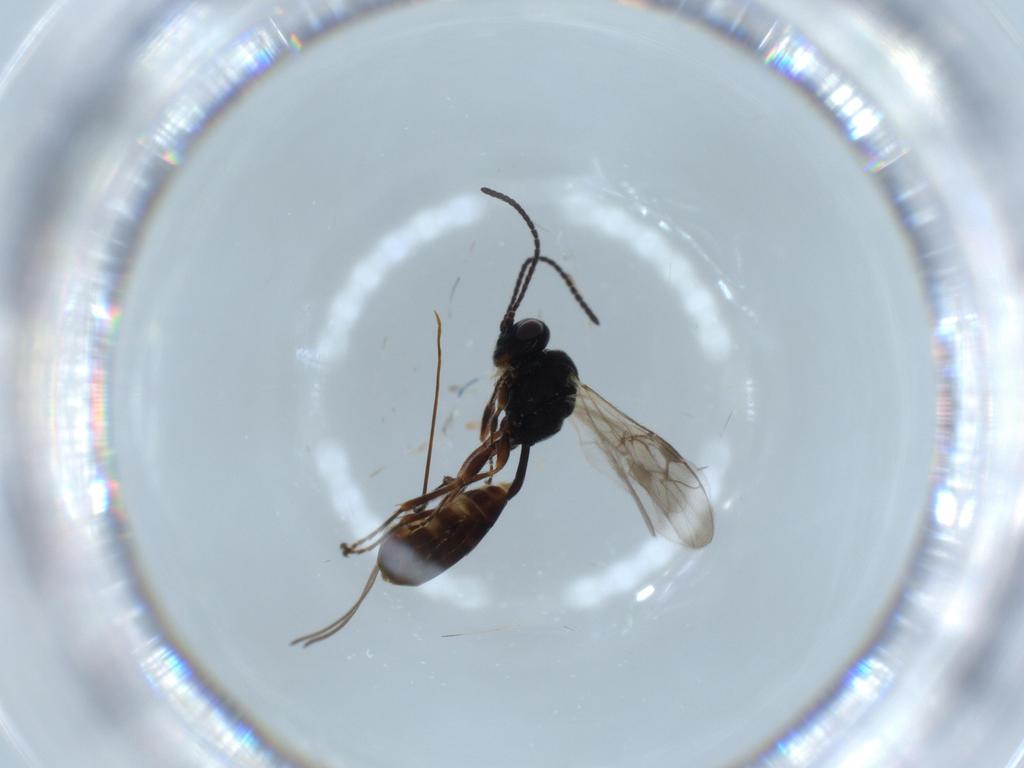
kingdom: Animalia
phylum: Arthropoda
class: Insecta
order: Hymenoptera
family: Ichneumonidae
